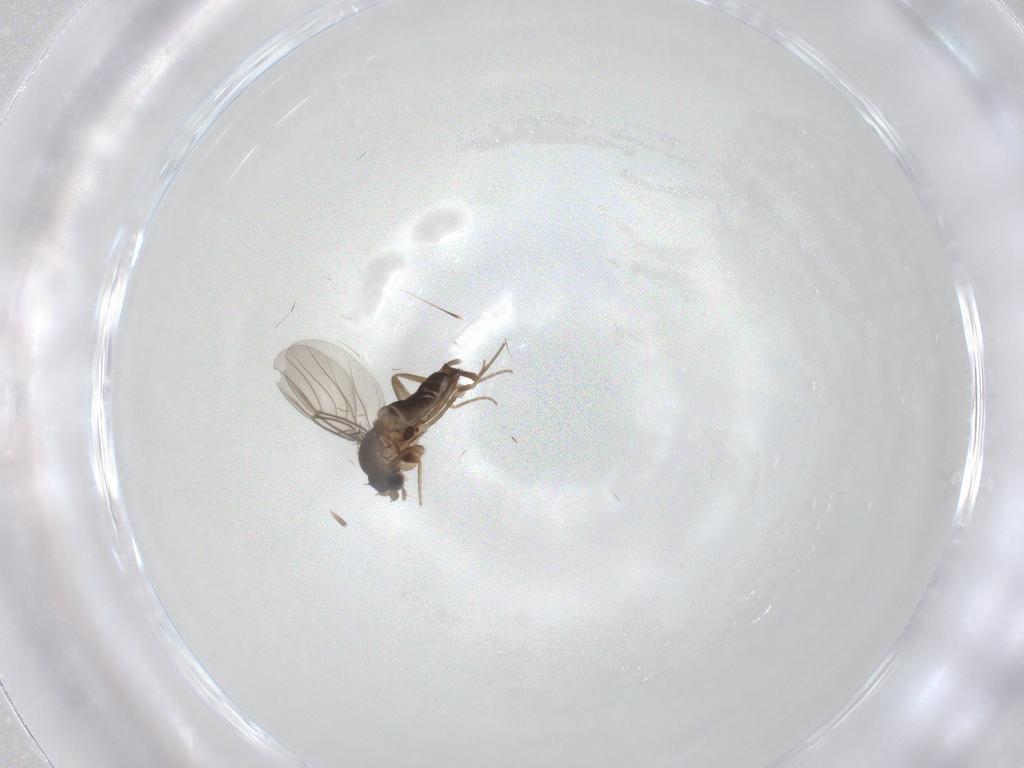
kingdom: Animalia
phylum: Arthropoda
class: Insecta
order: Diptera
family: Phoridae
